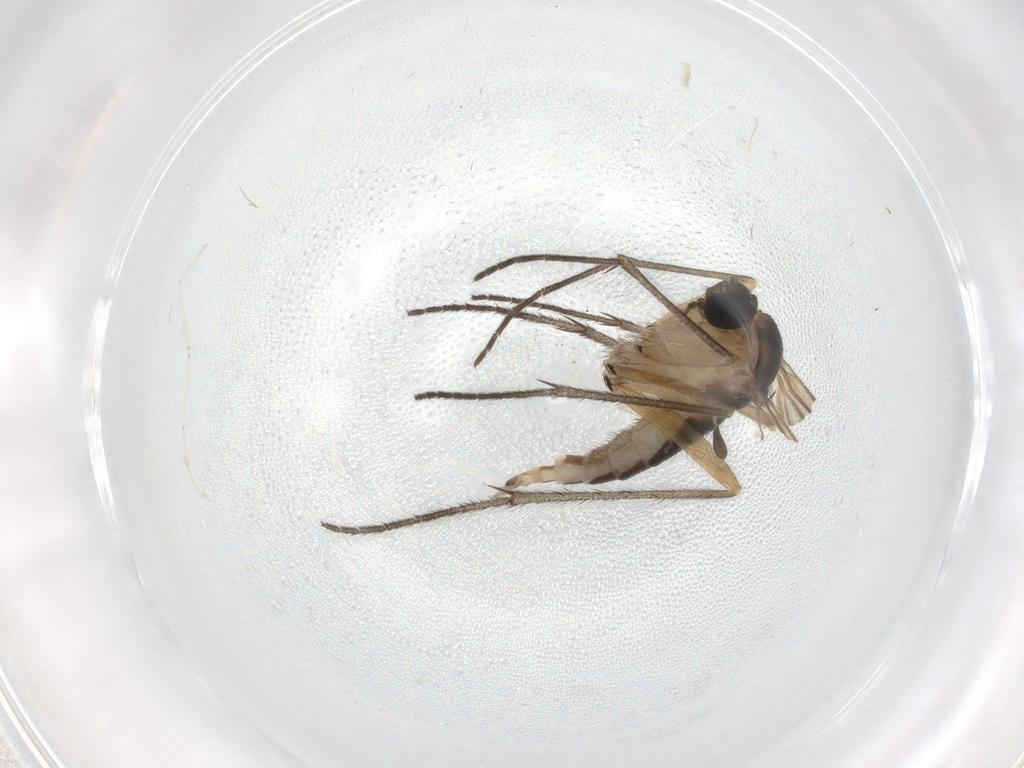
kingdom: Animalia
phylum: Arthropoda
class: Insecta
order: Diptera
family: Sciaridae
